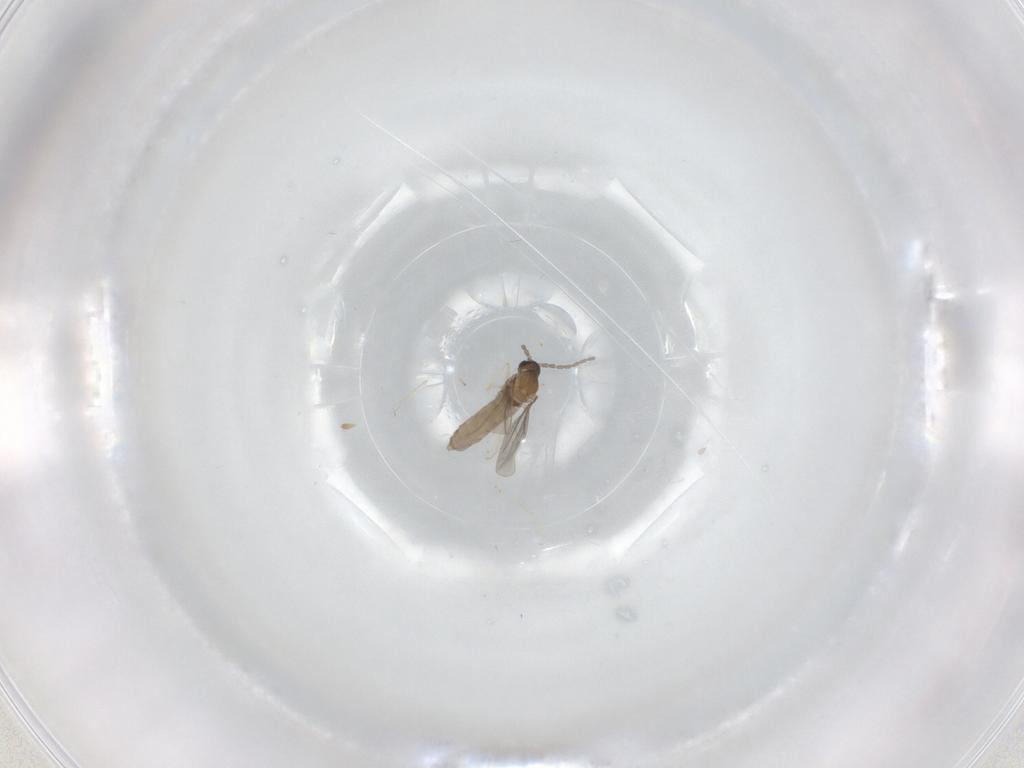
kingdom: Animalia
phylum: Arthropoda
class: Insecta
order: Diptera
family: Cecidomyiidae
